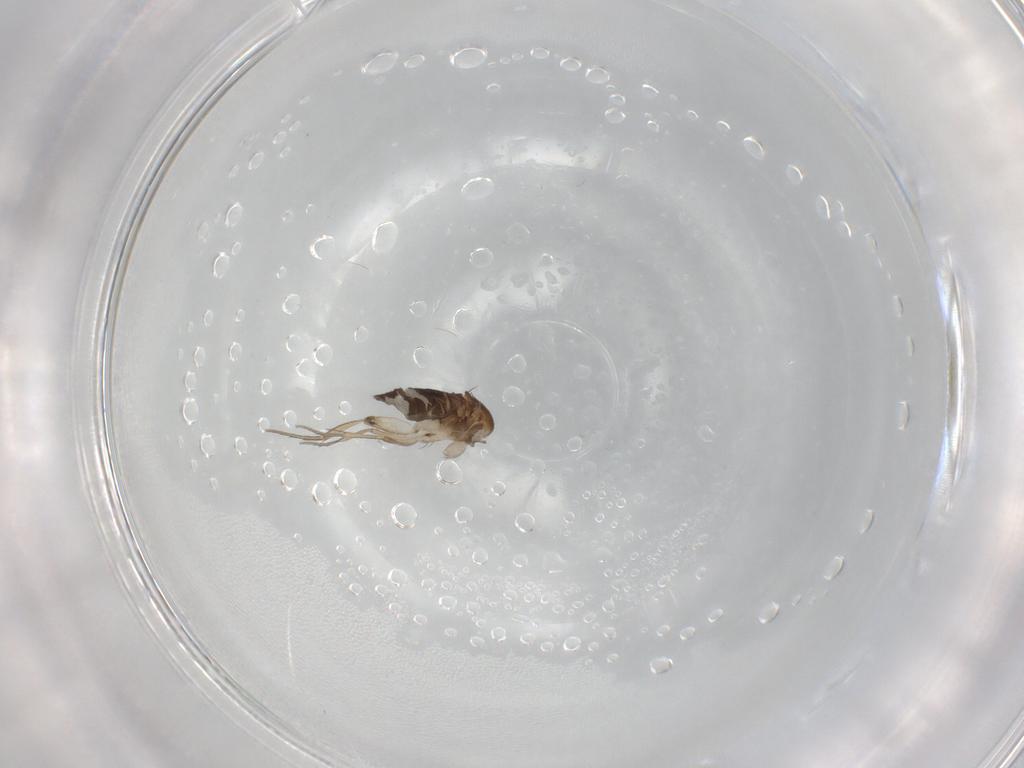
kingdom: Animalia
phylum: Arthropoda
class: Insecta
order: Diptera
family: Phoridae
